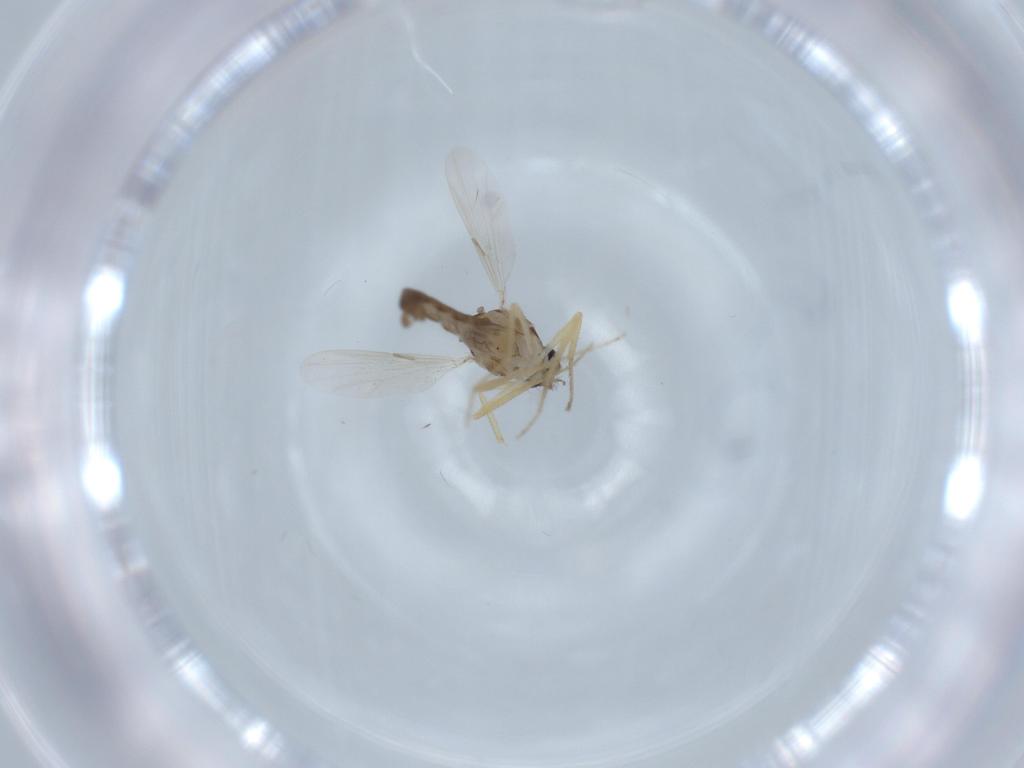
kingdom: Animalia
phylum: Arthropoda
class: Insecta
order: Diptera
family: Ceratopogonidae
